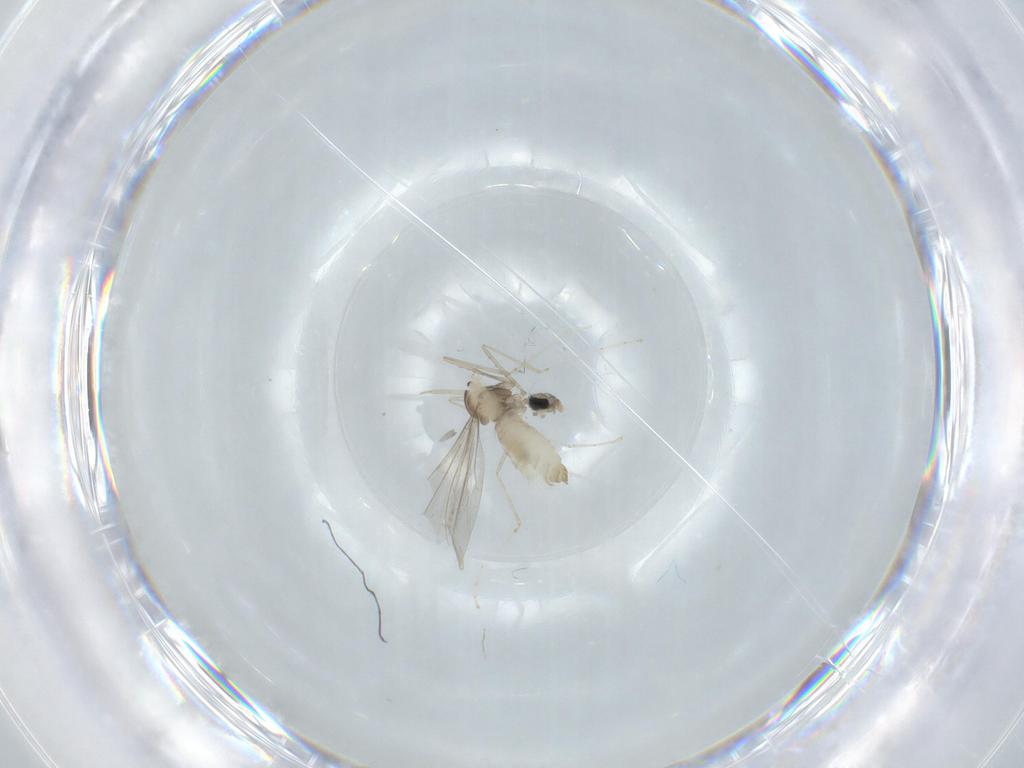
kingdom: Animalia
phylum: Arthropoda
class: Insecta
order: Diptera
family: Cecidomyiidae
